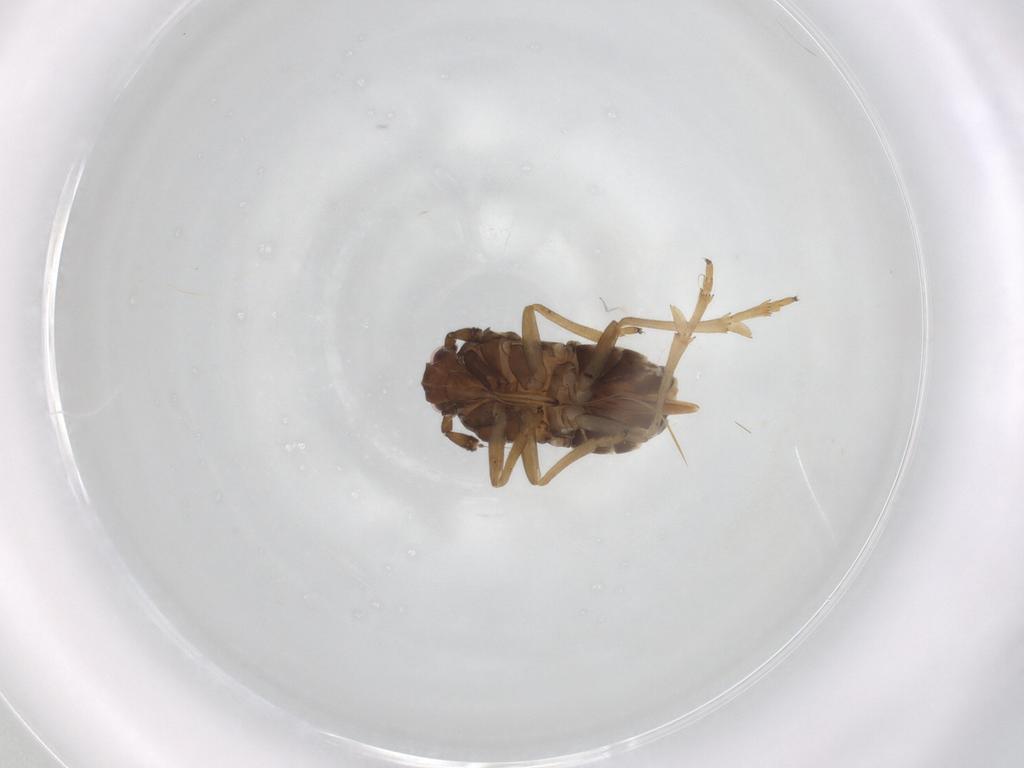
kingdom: Animalia
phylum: Arthropoda
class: Insecta
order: Hemiptera
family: Delphacidae
